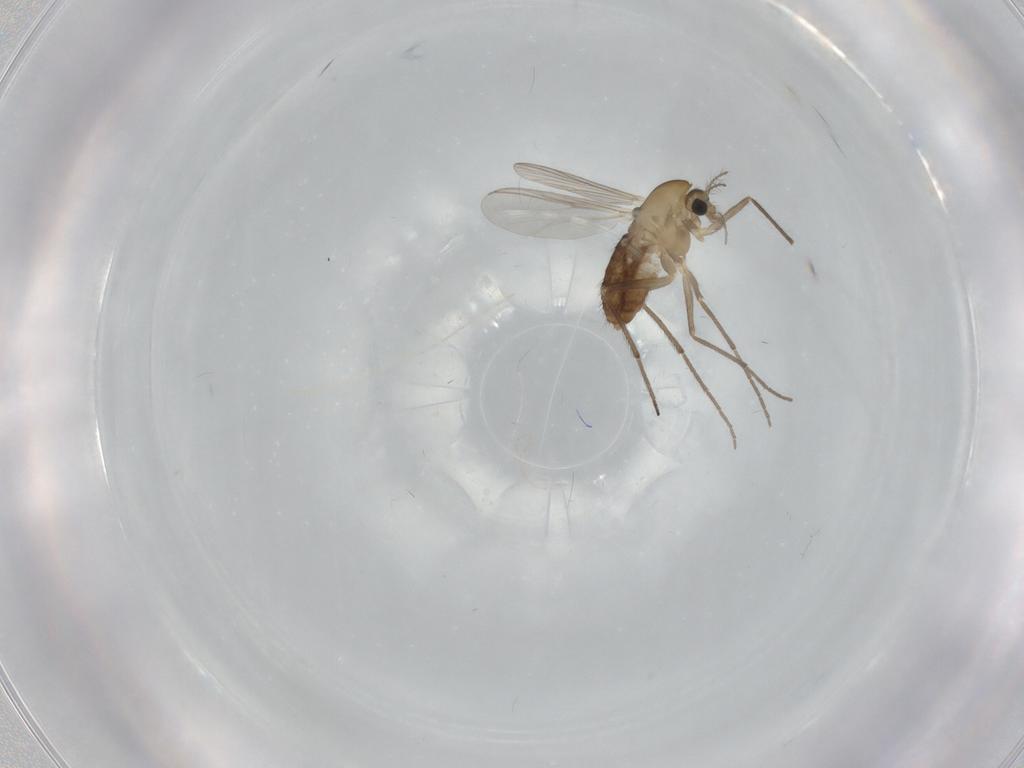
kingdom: Animalia
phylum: Arthropoda
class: Insecta
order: Diptera
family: Chironomidae
